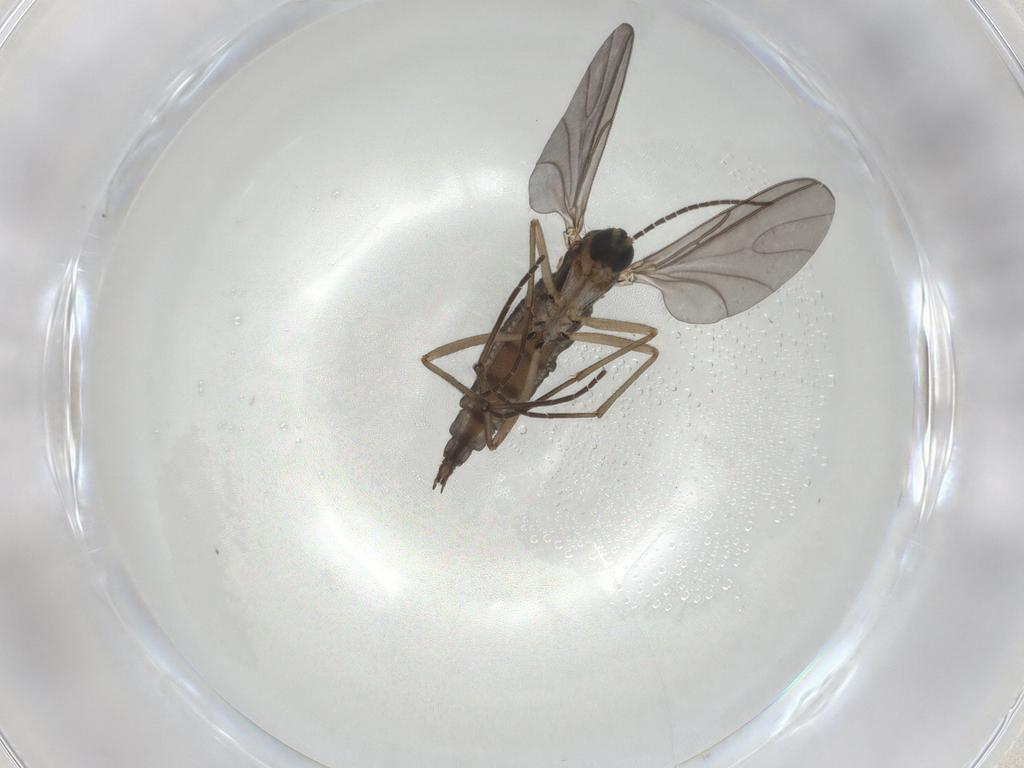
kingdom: Animalia
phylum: Arthropoda
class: Insecta
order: Diptera
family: Sciaridae
